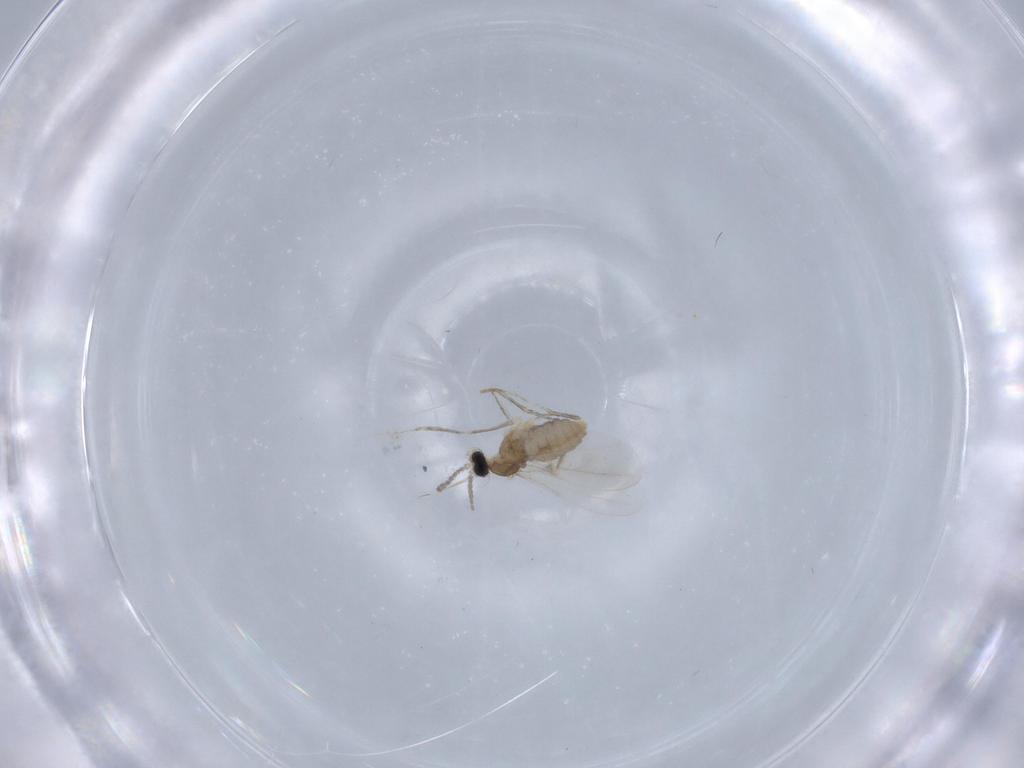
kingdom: Animalia
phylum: Arthropoda
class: Insecta
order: Diptera
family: Cecidomyiidae
